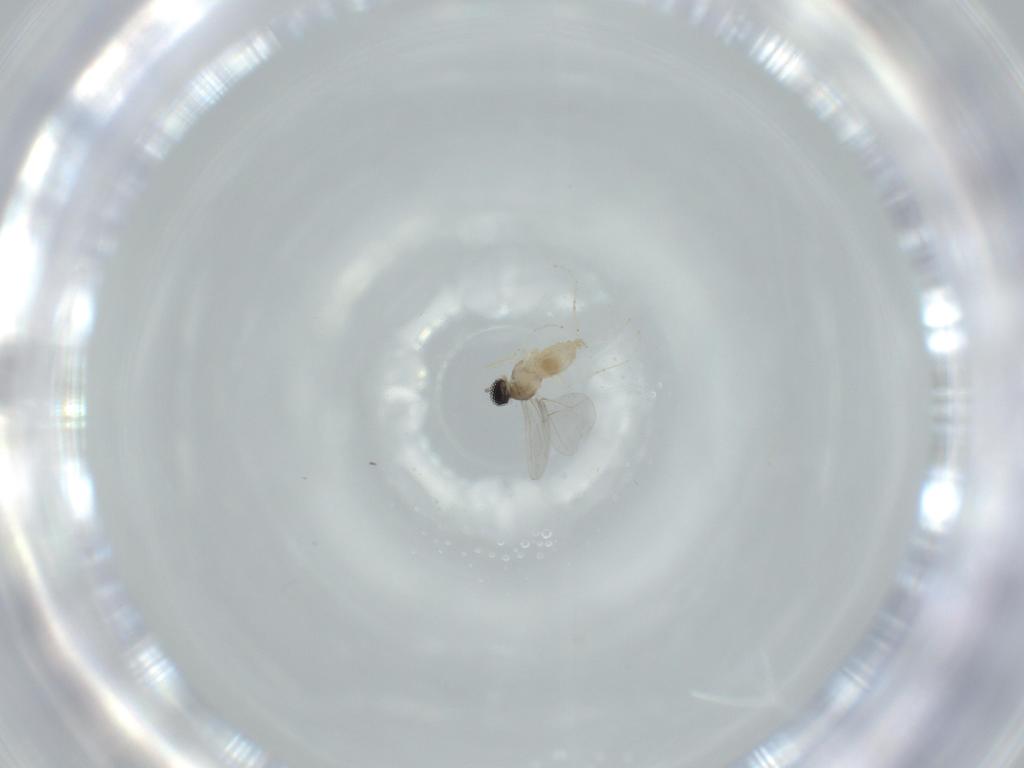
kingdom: Animalia
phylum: Arthropoda
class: Insecta
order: Diptera
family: Cecidomyiidae
